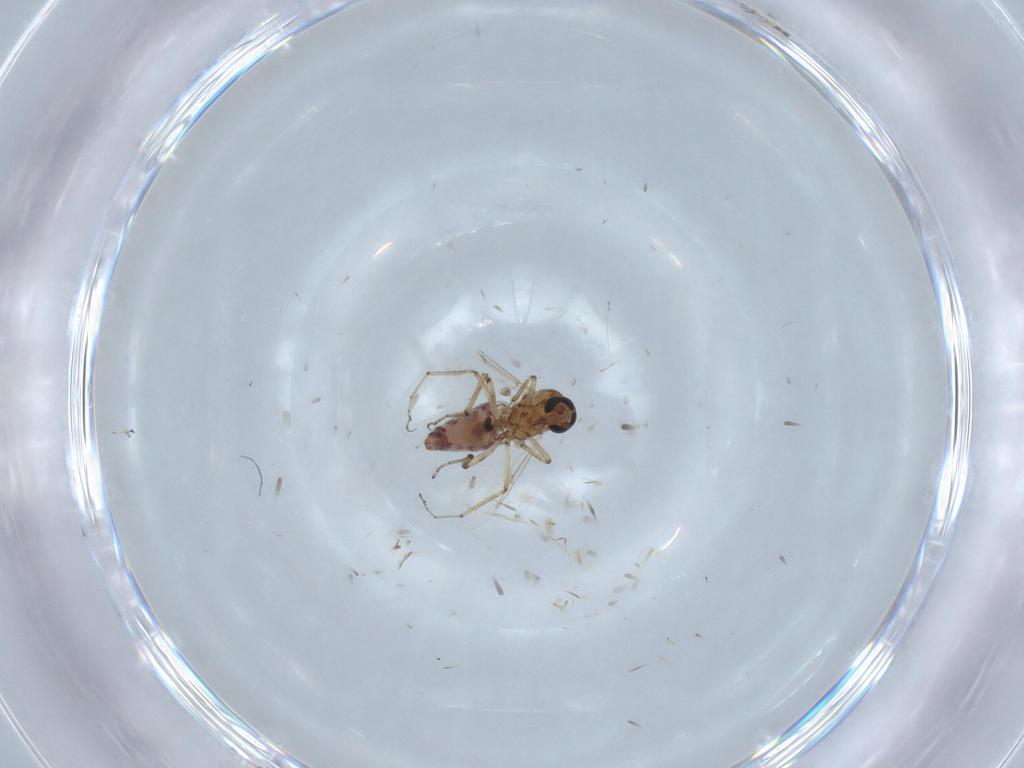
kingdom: Animalia
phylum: Arthropoda
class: Insecta
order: Diptera
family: Ceratopogonidae
